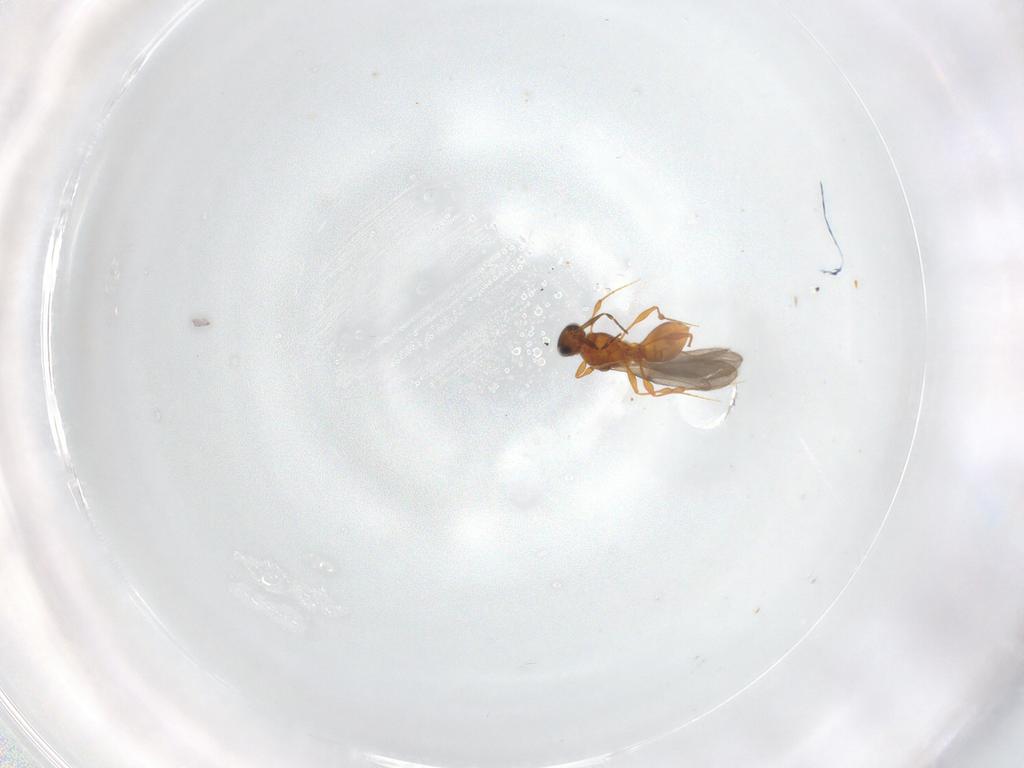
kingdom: Animalia
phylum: Arthropoda
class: Insecta
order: Hymenoptera
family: Platygastridae
